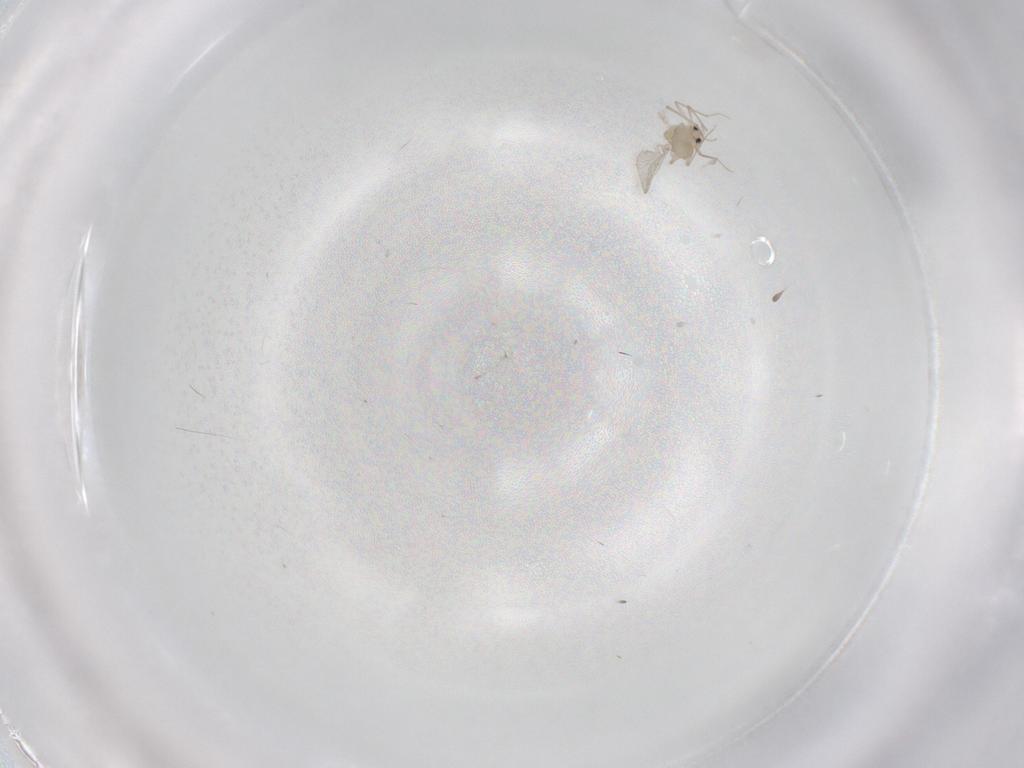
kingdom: Animalia
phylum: Arthropoda
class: Insecta
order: Diptera
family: Chironomidae
